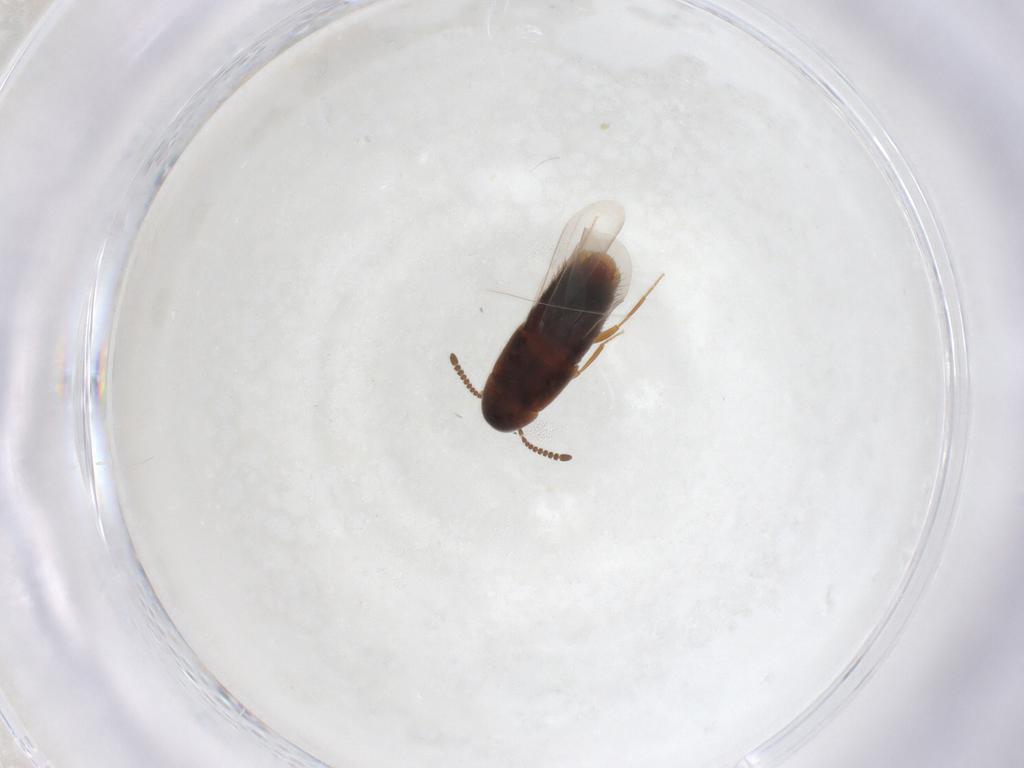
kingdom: Animalia
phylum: Arthropoda
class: Insecta
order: Coleoptera
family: Staphylinidae
